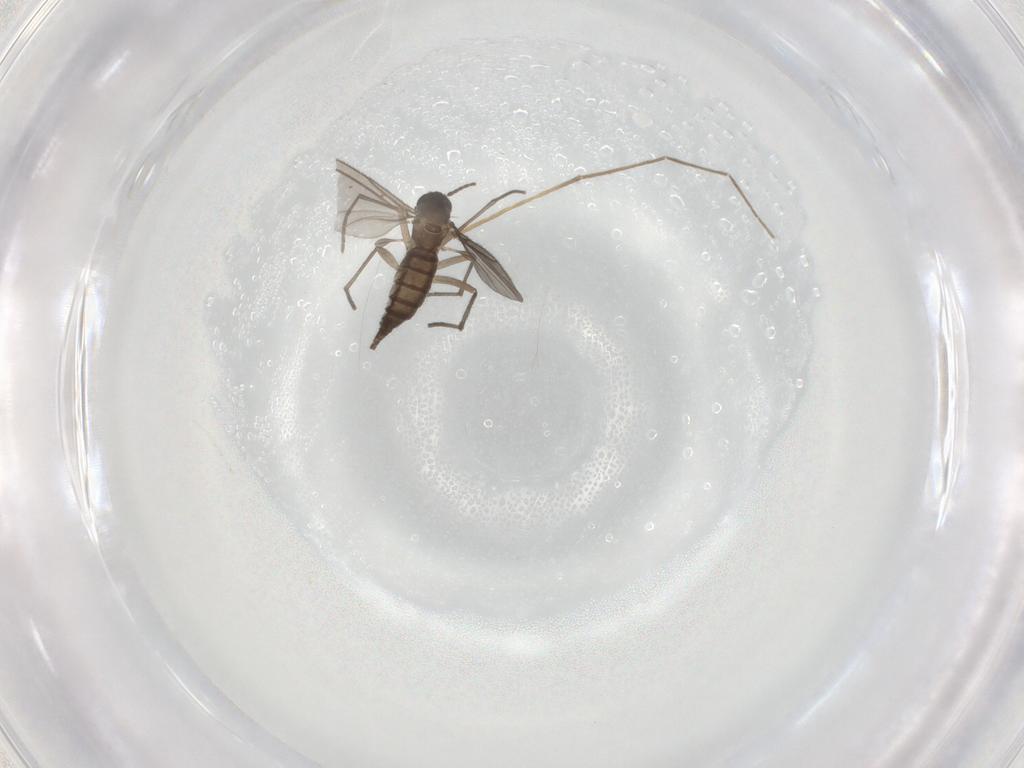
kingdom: Animalia
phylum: Arthropoda
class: Insecta
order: Diptera
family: Sciaridae
